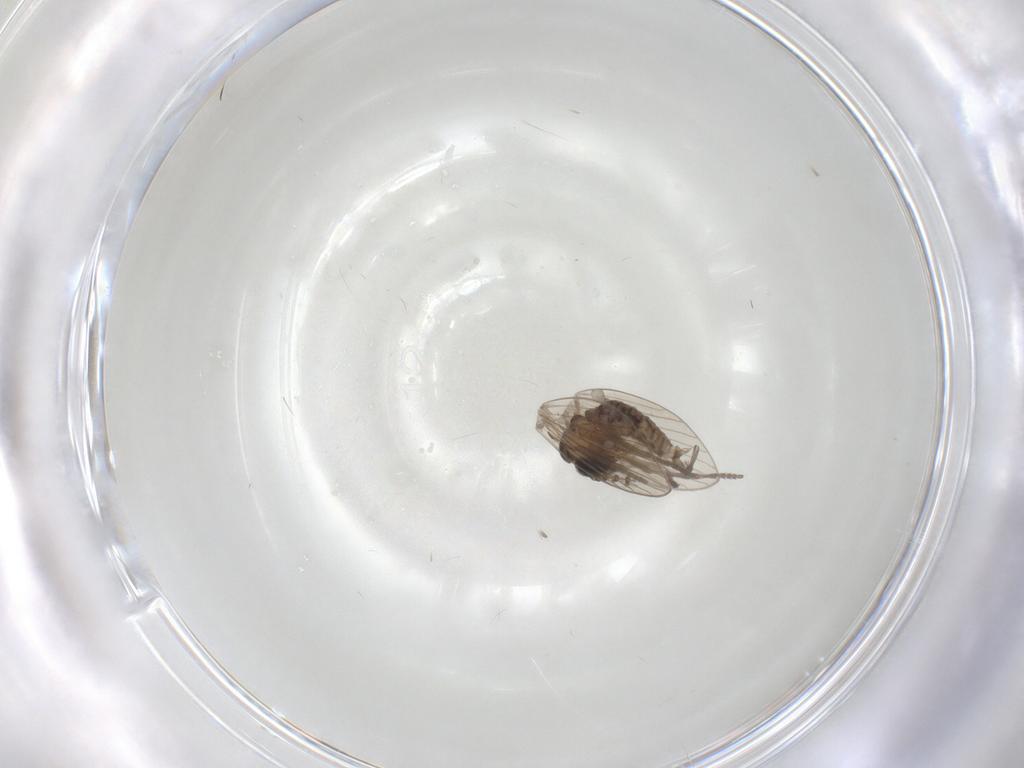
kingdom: Animalia
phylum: Arthropoda
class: Insecta
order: Diptera
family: Psychodidae
